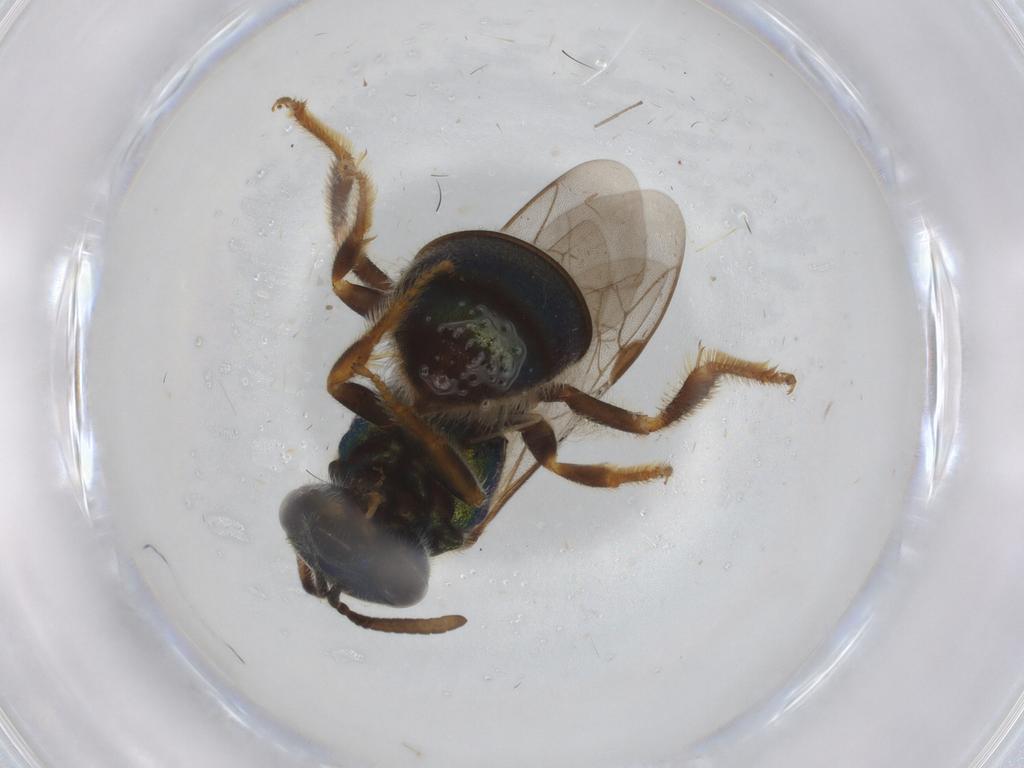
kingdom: Animalia
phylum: Arthropoda
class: Insecta
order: Hymenoptera
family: Halictidae
